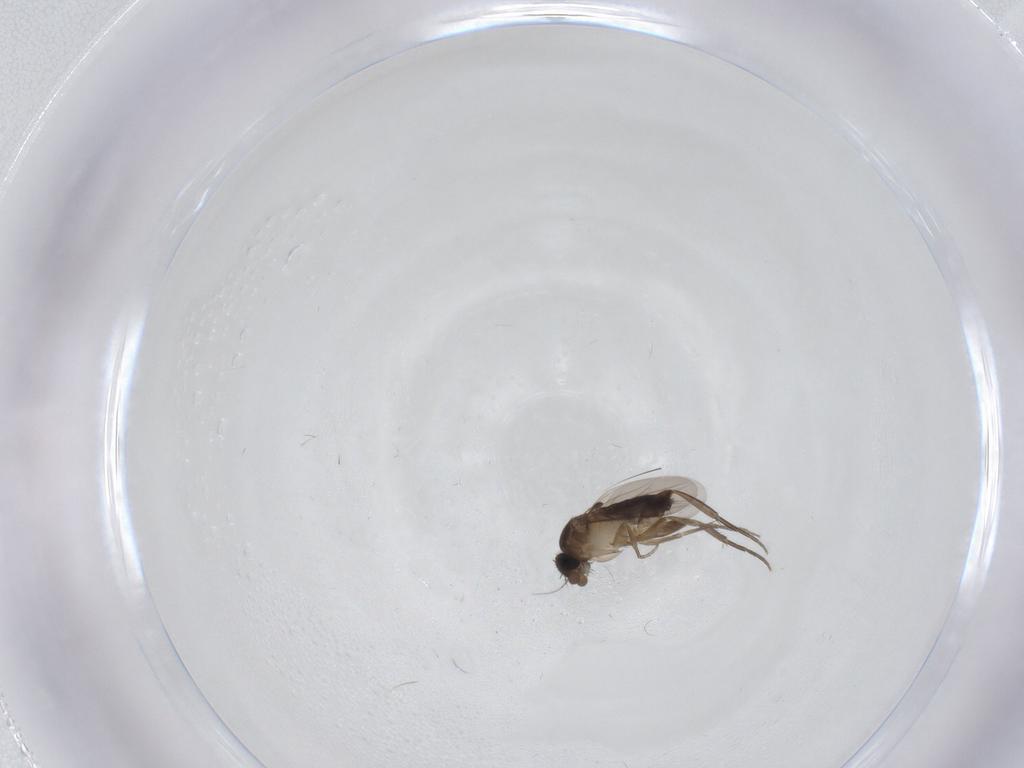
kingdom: Animalia
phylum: Arthropoda
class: Insecta
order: Diptera
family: Phoridae
